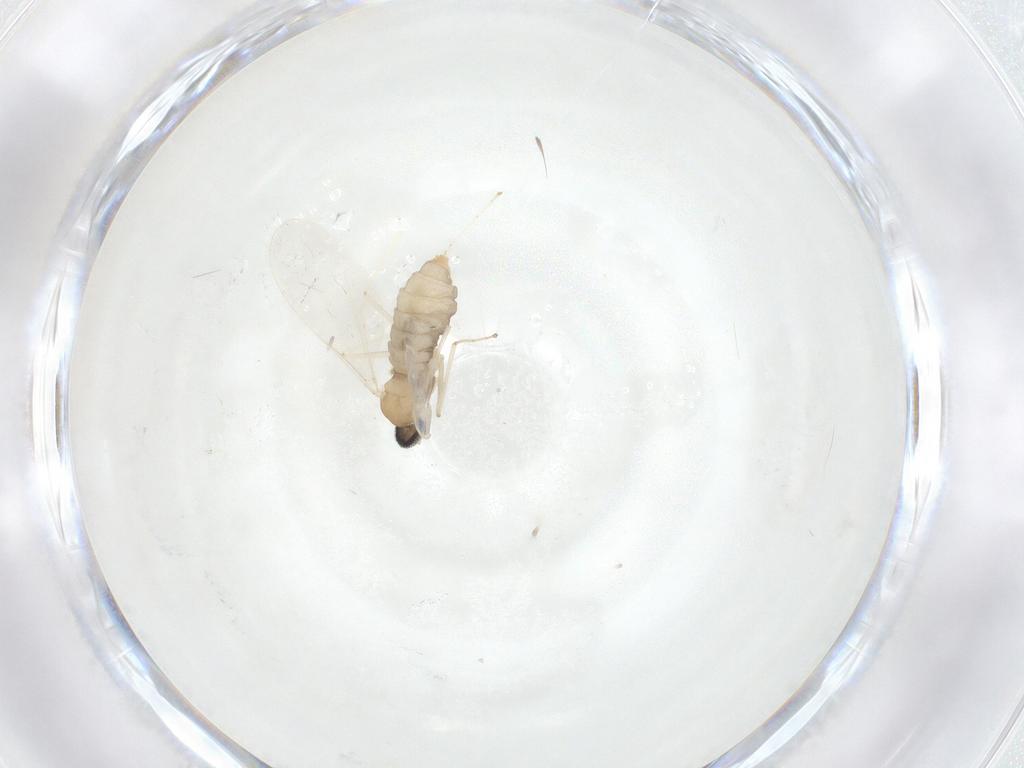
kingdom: Animalia
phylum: Arthropoda
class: Insecta
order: Diptera
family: Cecidomyiidae
